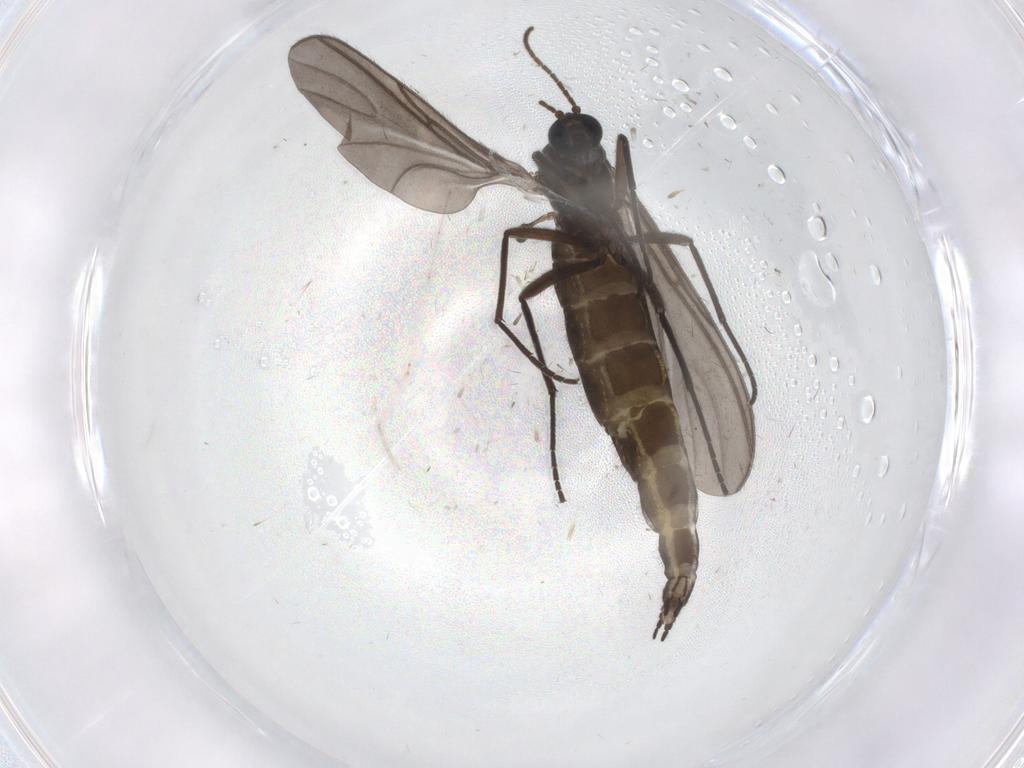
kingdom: Animalia
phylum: Arthropoda
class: Insecta
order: Diptera
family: Sciaridae
